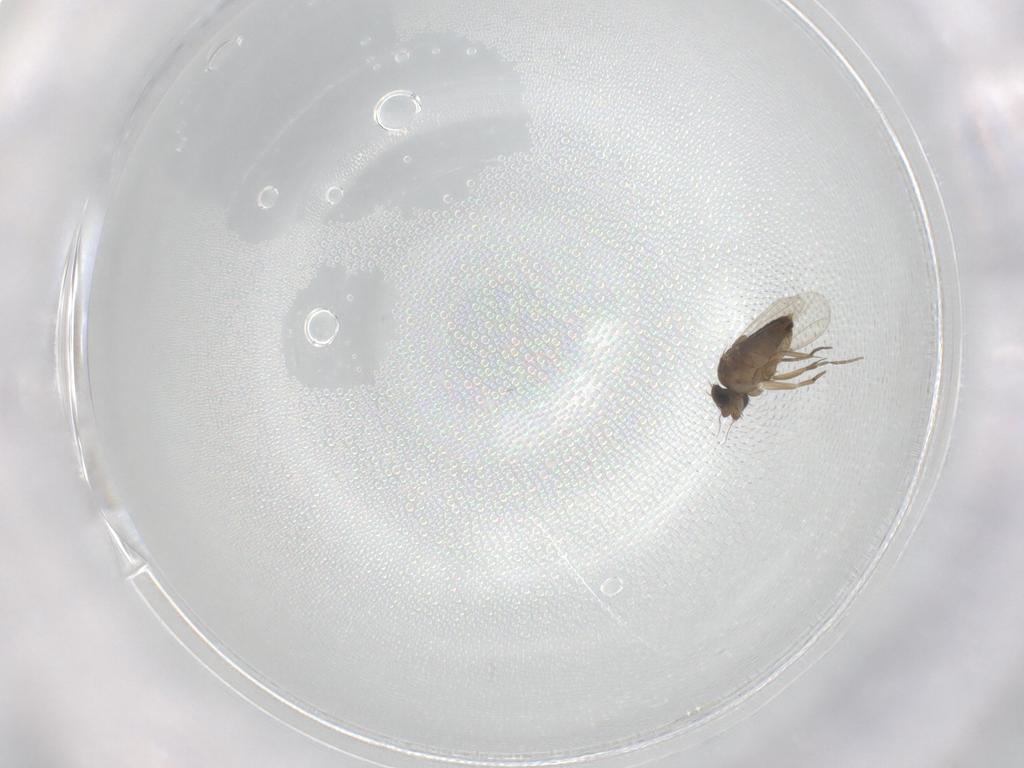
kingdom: Animalia
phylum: Arthropoda
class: Insecta
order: Diptera
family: Phoridae
